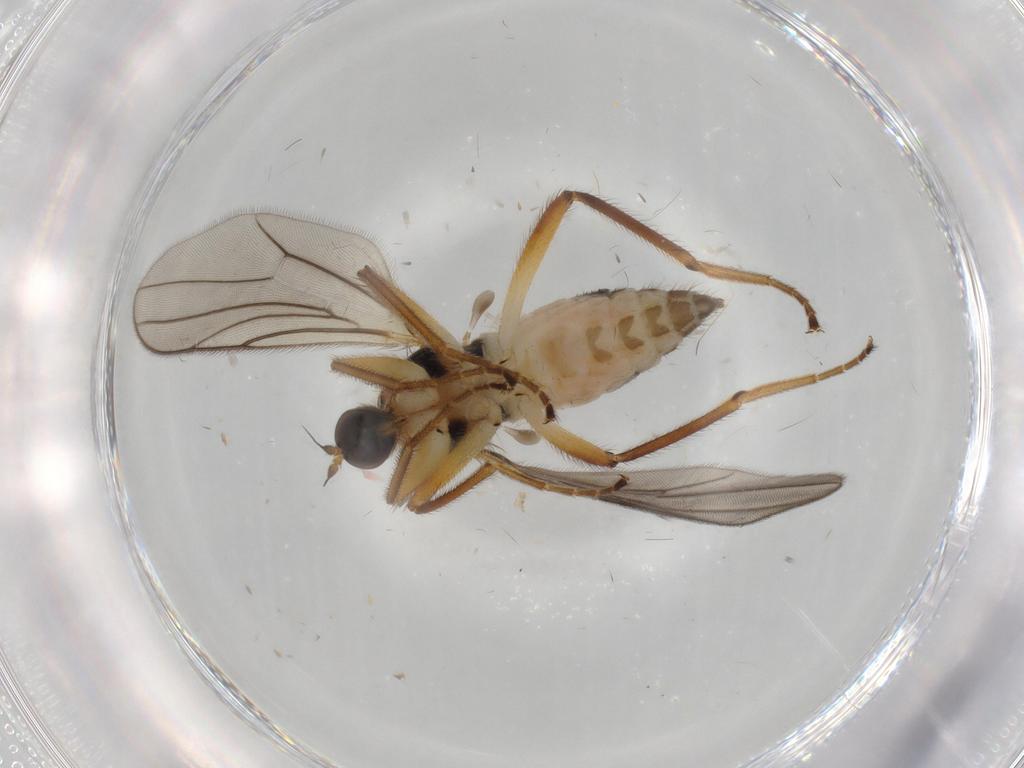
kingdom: Animalia
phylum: Arthropoda
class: Insecta
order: Diptera
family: Hybotidae
